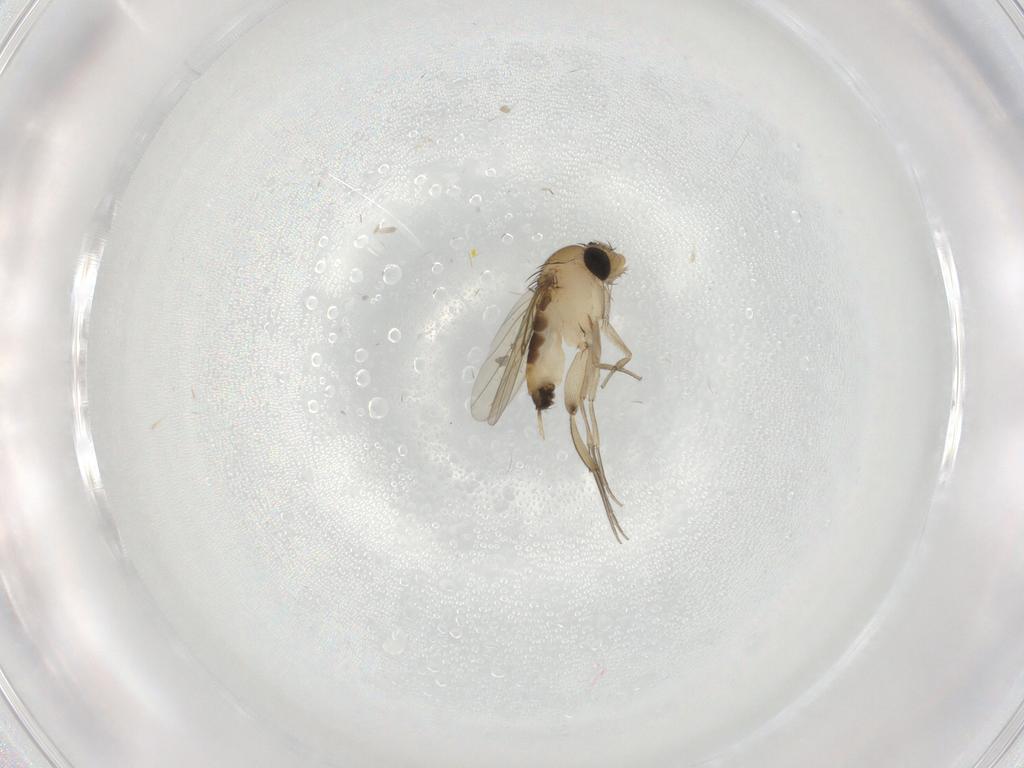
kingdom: Animalia
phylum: Arthropoda
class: Insecta
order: Diptera
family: Phoridae
